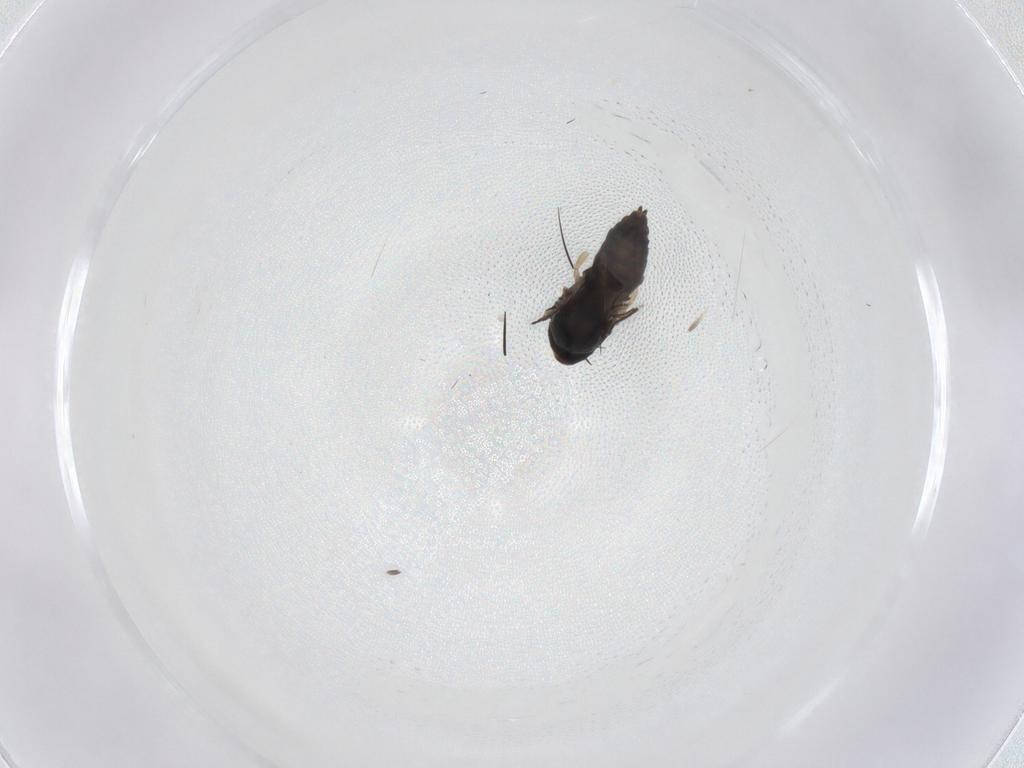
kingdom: Animalia
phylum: Arthropoda
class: Insecta
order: Diptera
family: Dolichopodidae
